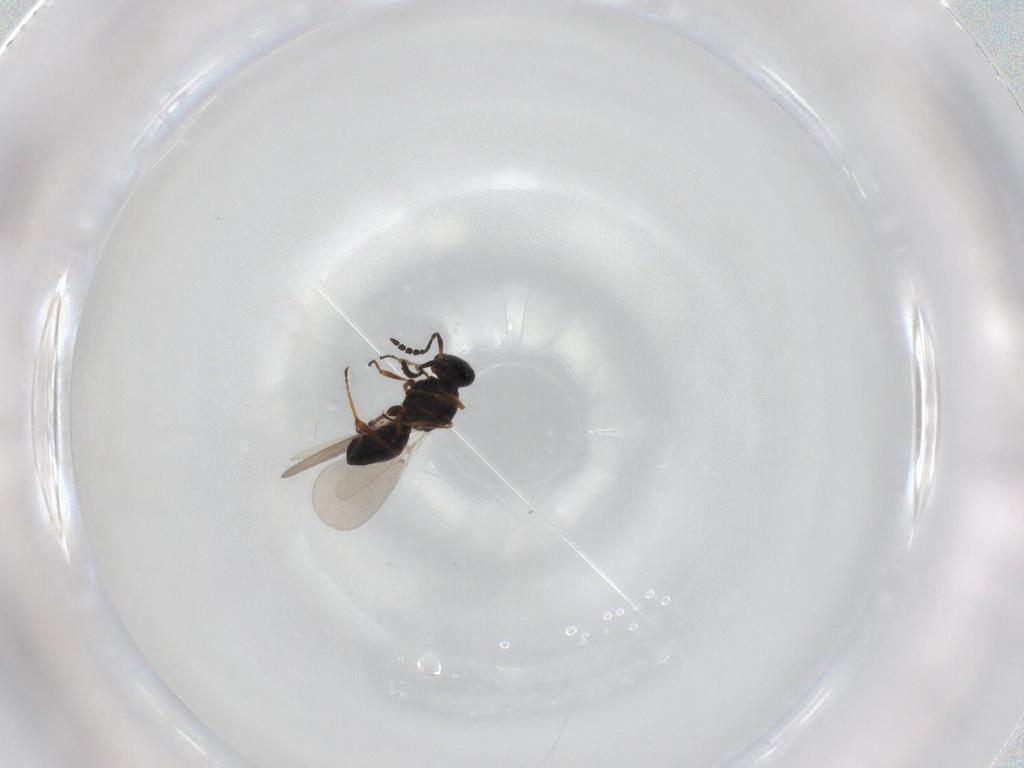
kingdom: Animalia
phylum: Arthropoda
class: Insecta
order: Hymenoptera
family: Platygastridae
